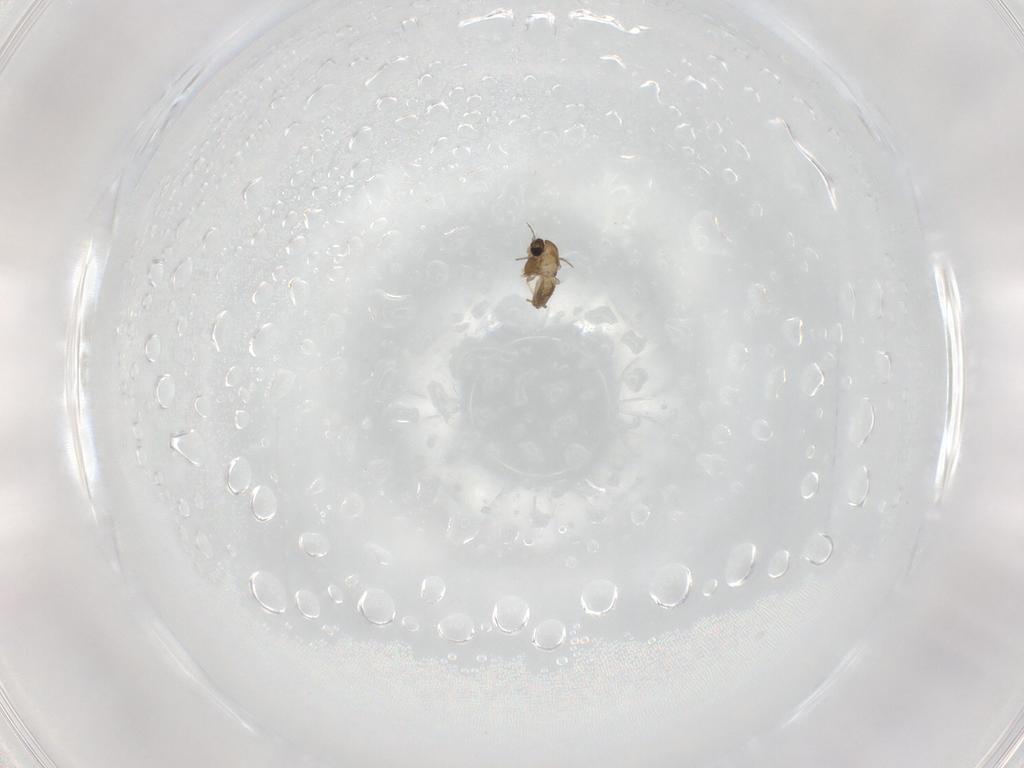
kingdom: Animalia
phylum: Arthropoda
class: Insecta
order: Diptera
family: Chironomidae
